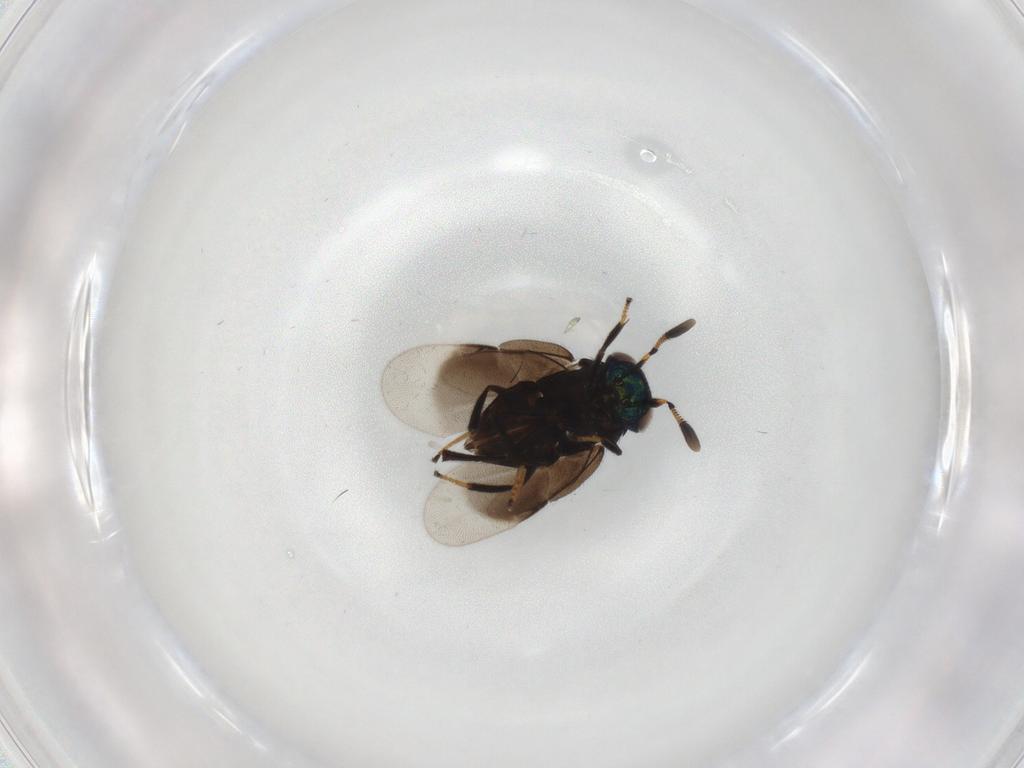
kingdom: Animalia
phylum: Arthropoda
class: Insecta
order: Hymenoptera
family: Encyrtidae
